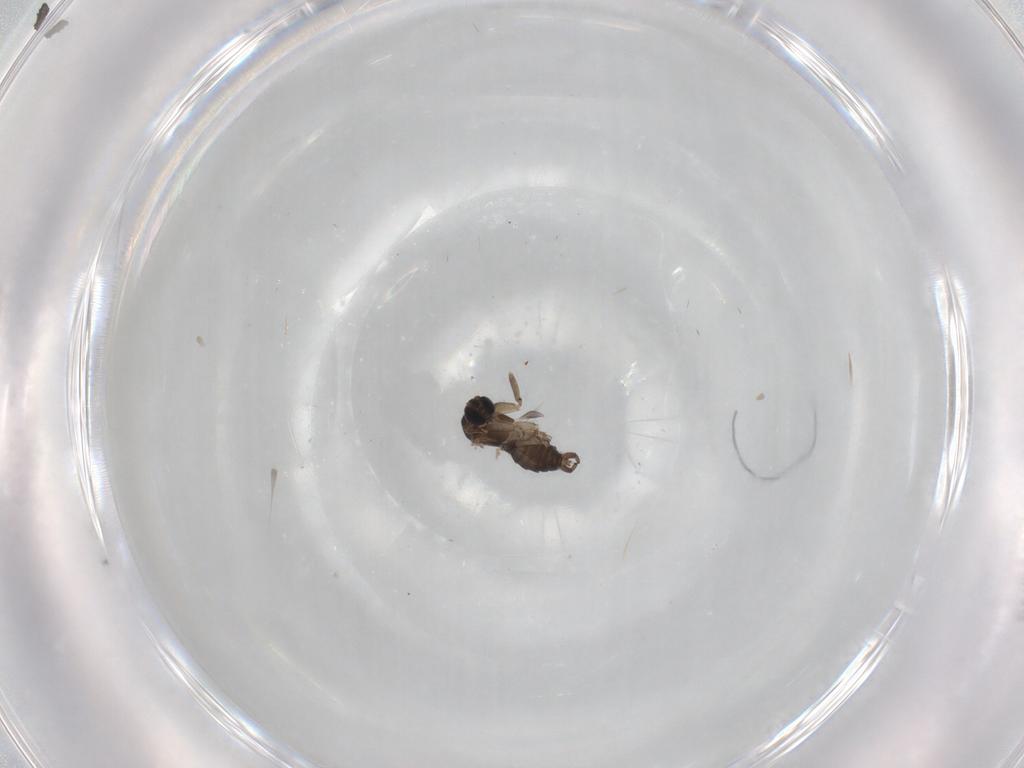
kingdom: Animalia
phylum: Arthropoda
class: Insecta
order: Diptera
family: Sciaridae
